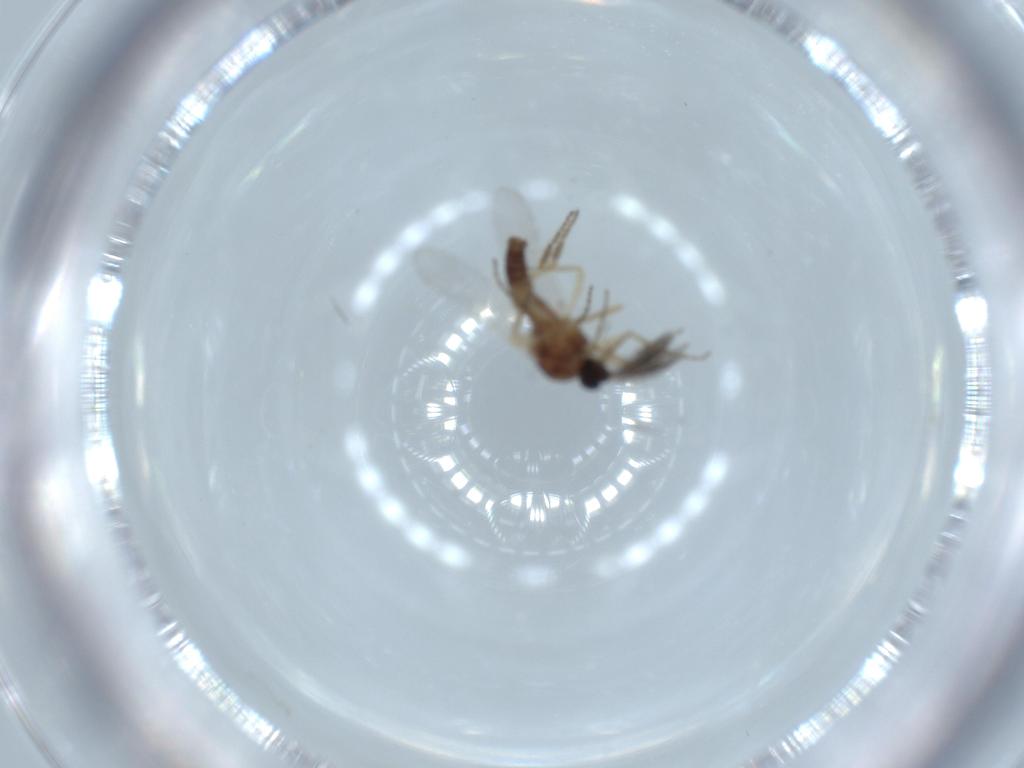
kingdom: Animalia
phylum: Arthropoda
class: Insecta
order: Diptera
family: Ceratopogonidae
